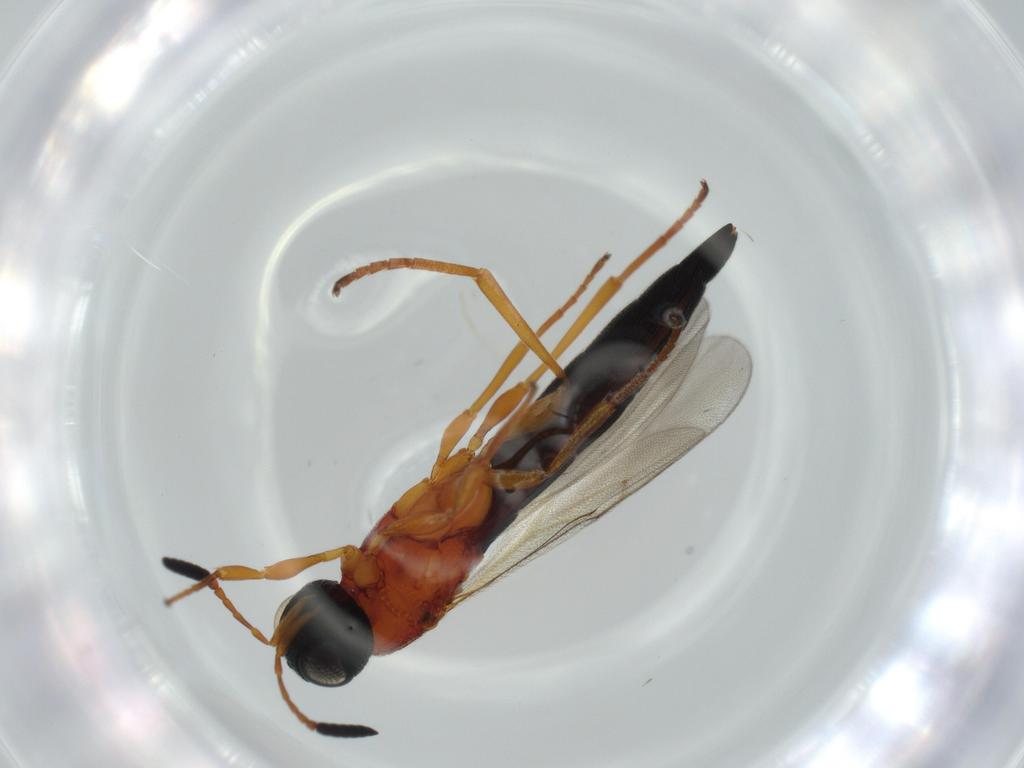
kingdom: Animalia
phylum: Arthropoda
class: Insecta
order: Hymenoptera
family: Scelionidae
